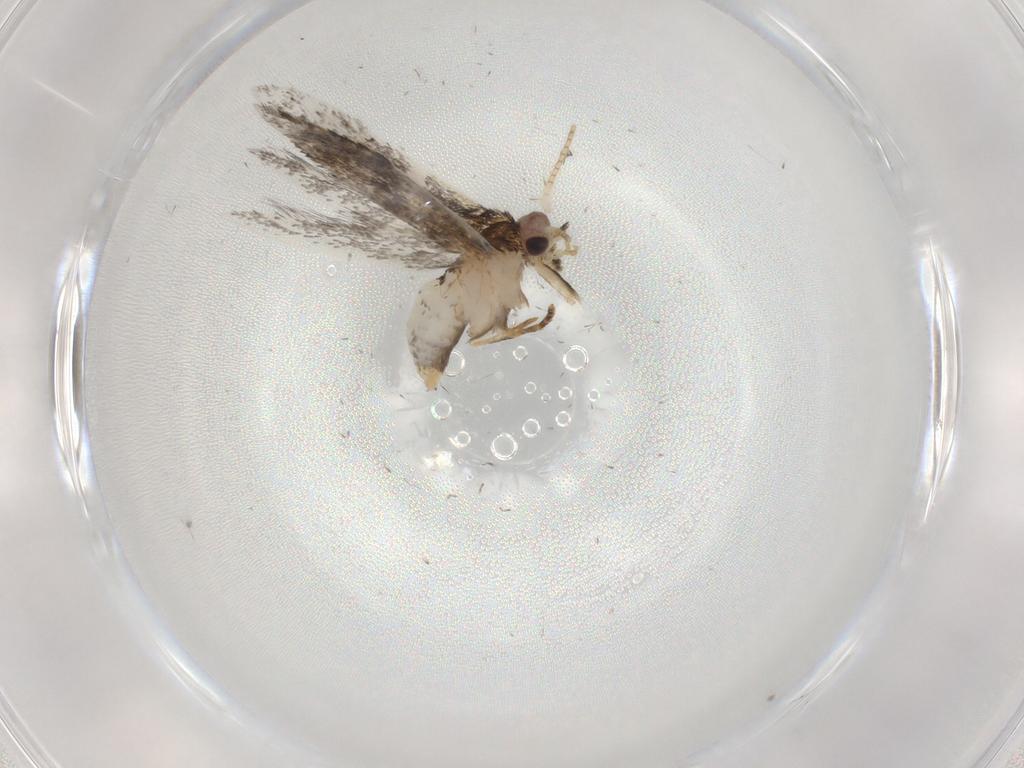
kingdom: Animalia
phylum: Arthropoda
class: Insecta
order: Lepidoptera
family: Tineidae
